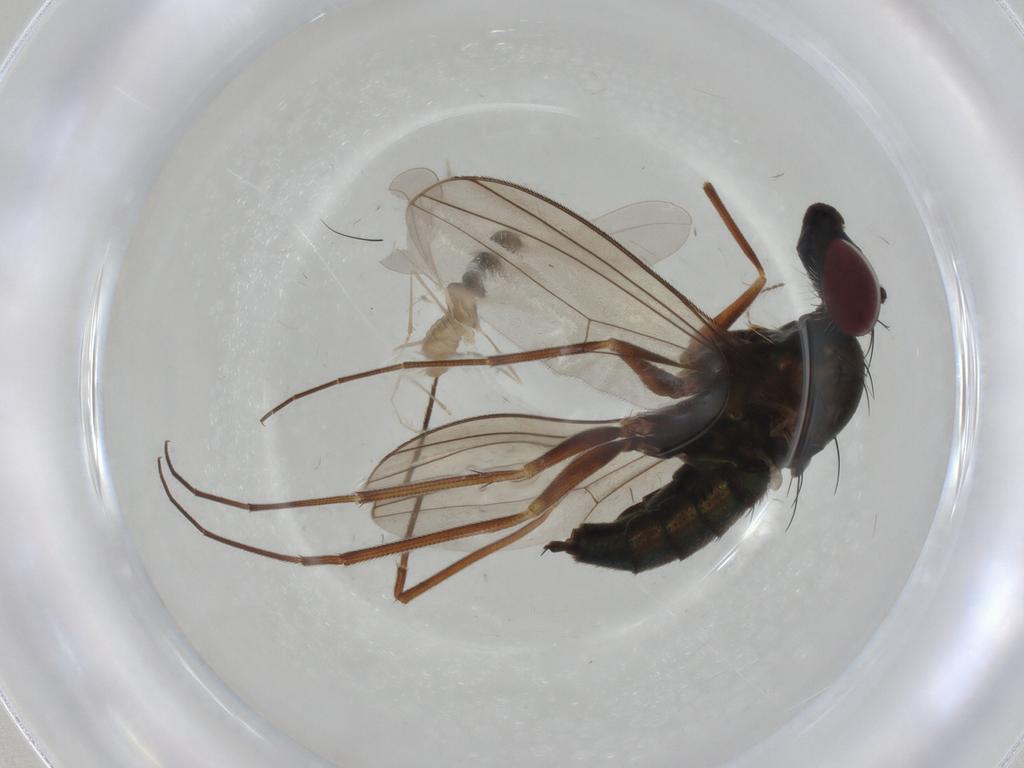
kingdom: Animalia
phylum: Arthropoda
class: Insecta
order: Diptera
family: Dolichopodidae
